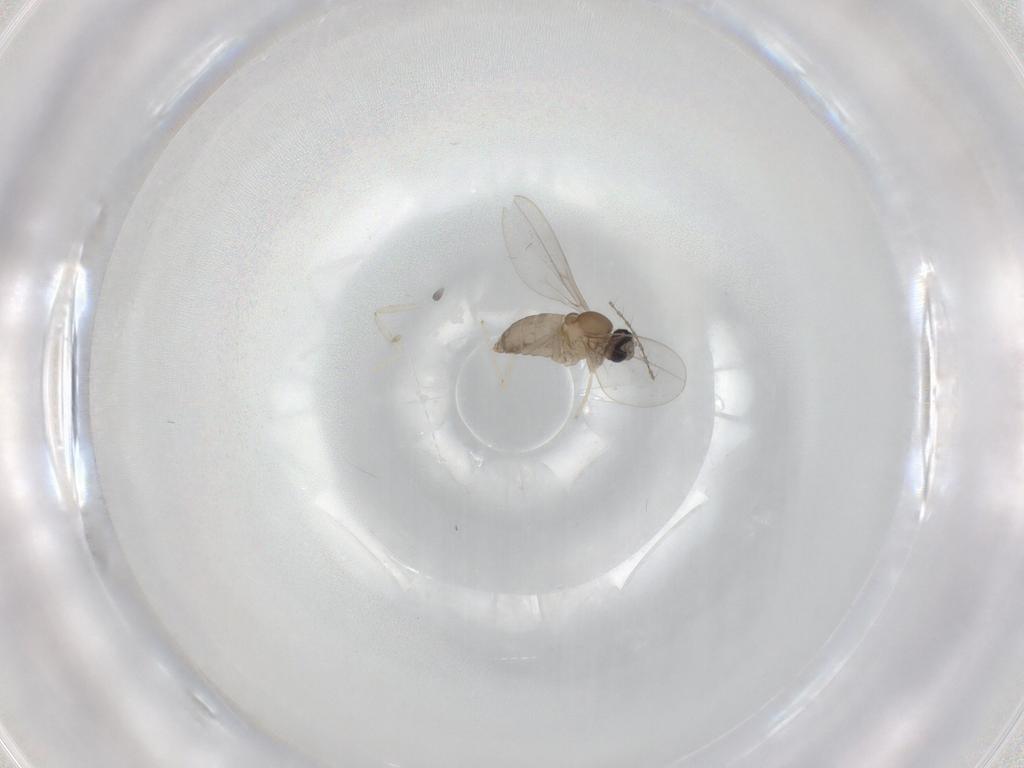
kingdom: Animalia
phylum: Arthropoda
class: Insecta
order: Diptera
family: Cecidomyiidae
